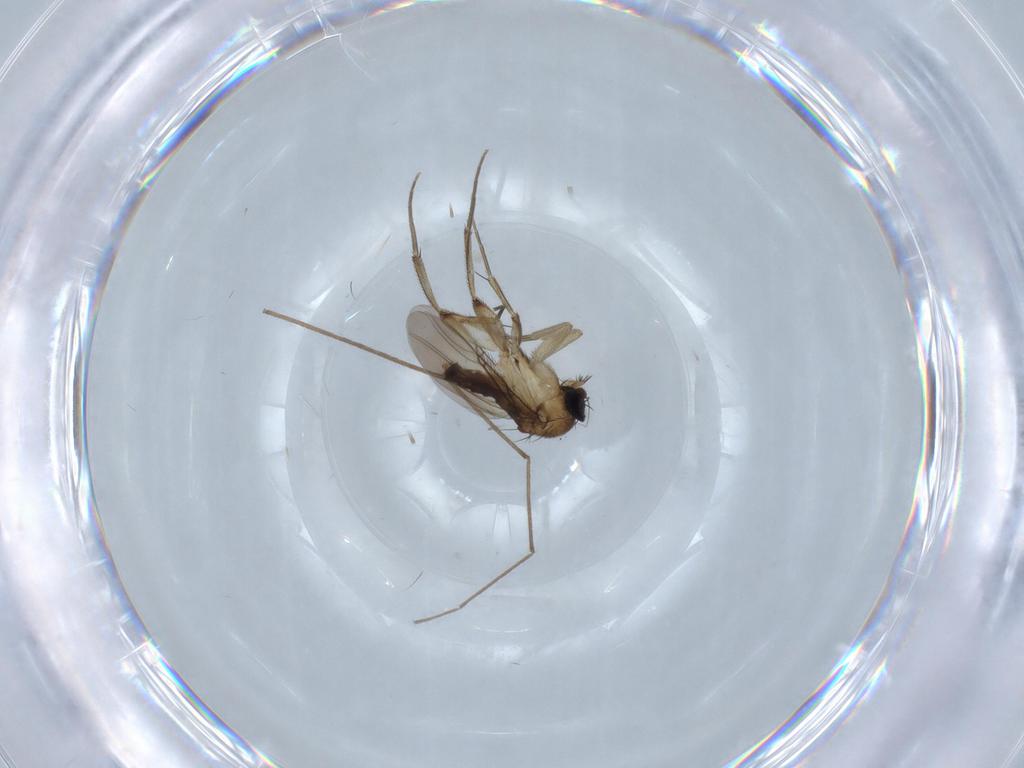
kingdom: Animalia
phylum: Arthropoda
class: Insecta
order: Diptera
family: Phoridae
